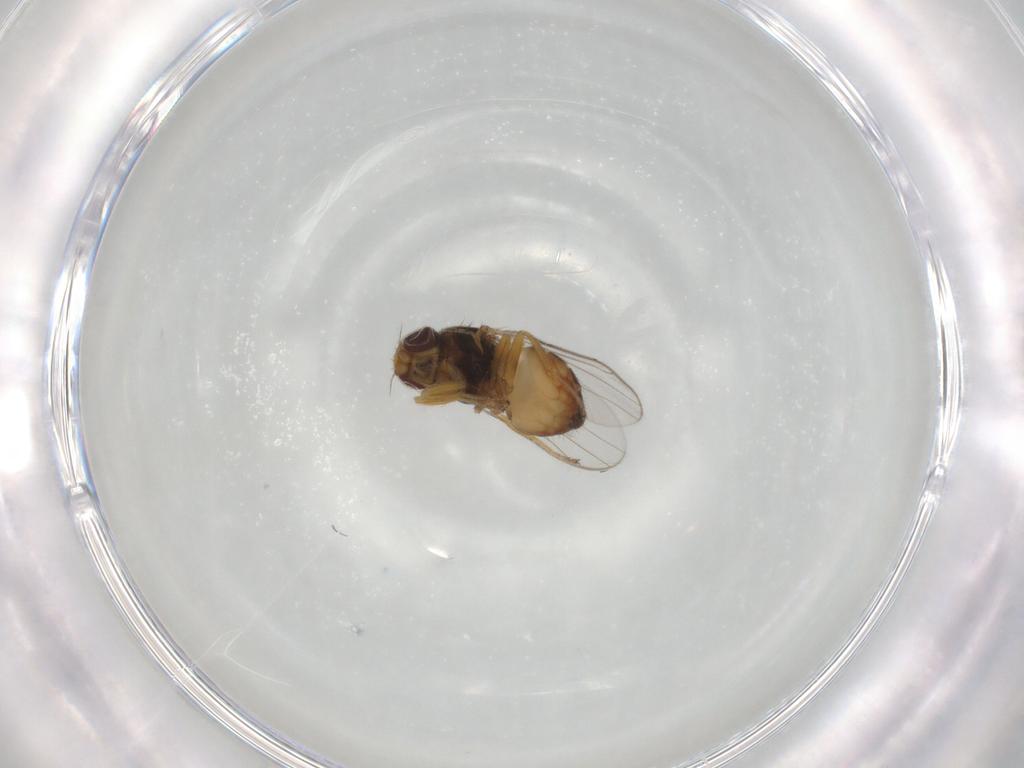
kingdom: Animalia
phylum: Arthropoda
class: Insecta
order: Diptera
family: Chloropidae
